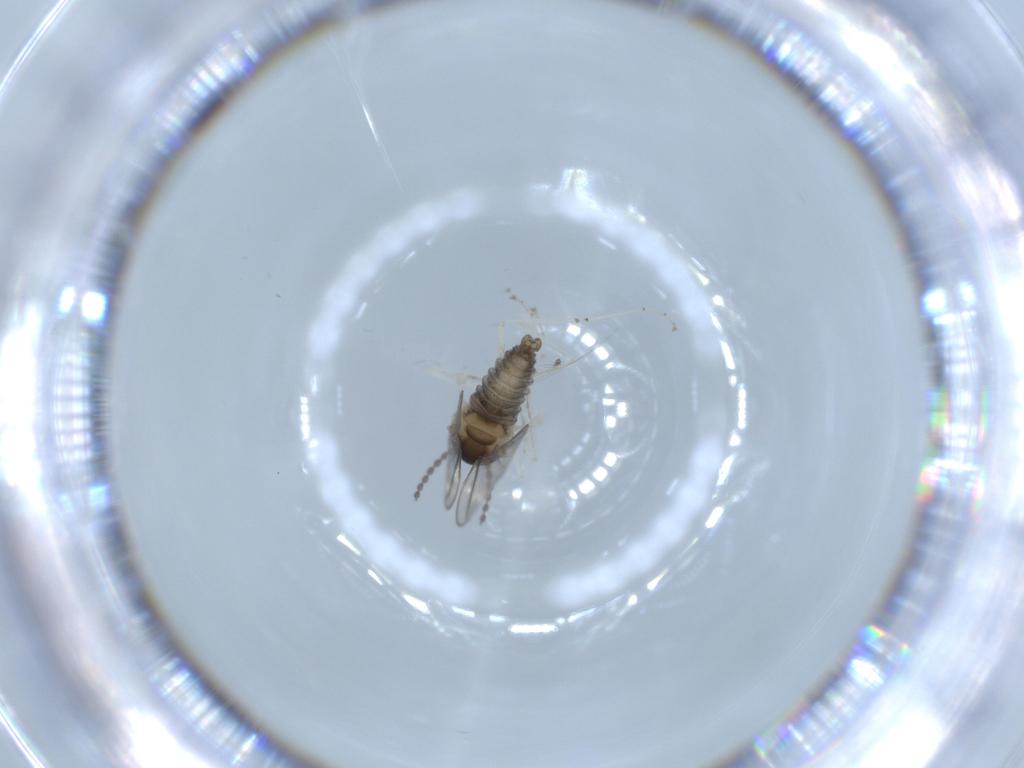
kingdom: Animalia
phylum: Arthropoda
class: Insecta
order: Diptera
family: Cecidomyiidae
